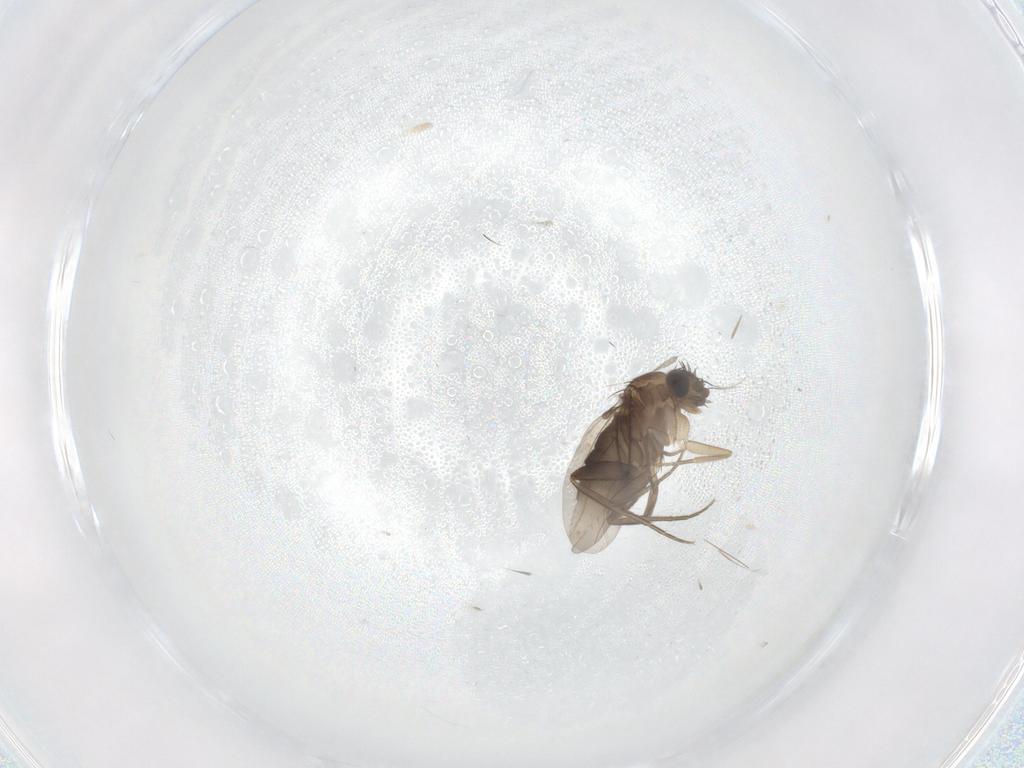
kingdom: Animalia
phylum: Arthropoda
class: Insecta
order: Diptera
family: Phoridae
